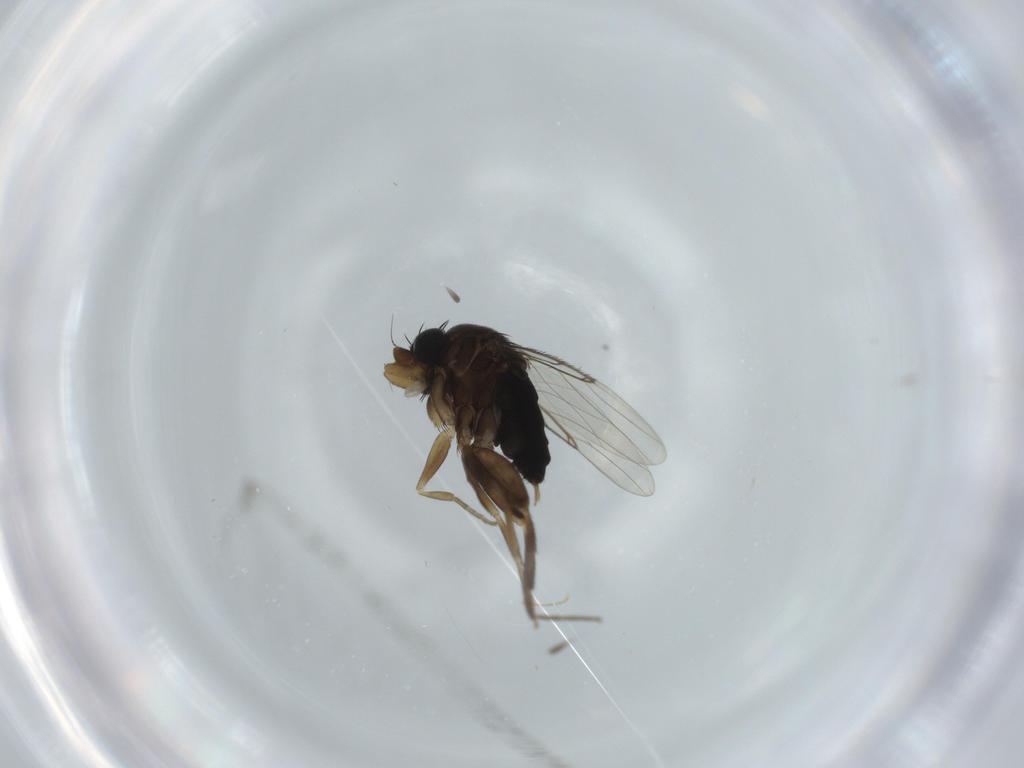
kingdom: Animalia
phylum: Arthropoda
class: Insecta
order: Diptera
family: Phoridae
